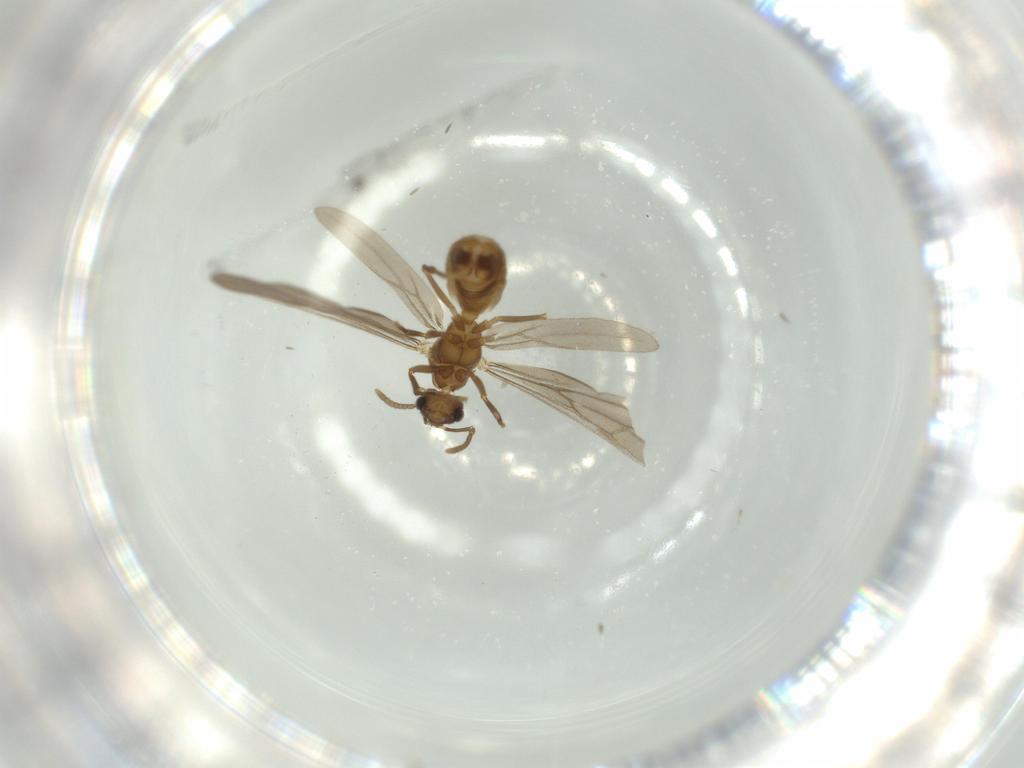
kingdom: Animalia
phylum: Arthropoda
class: Insecta
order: Hymenoptera
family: Formicidae
